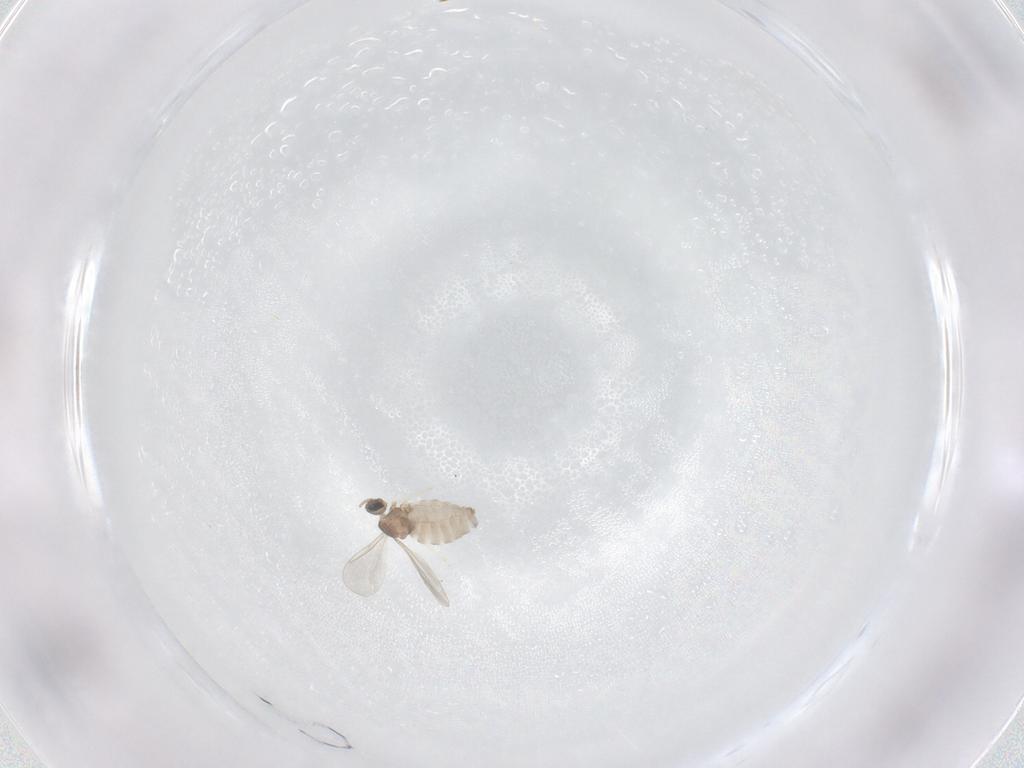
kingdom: Animalia
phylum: Arthropoda
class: Insecta
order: Diptera
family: Cecidomyiidae
